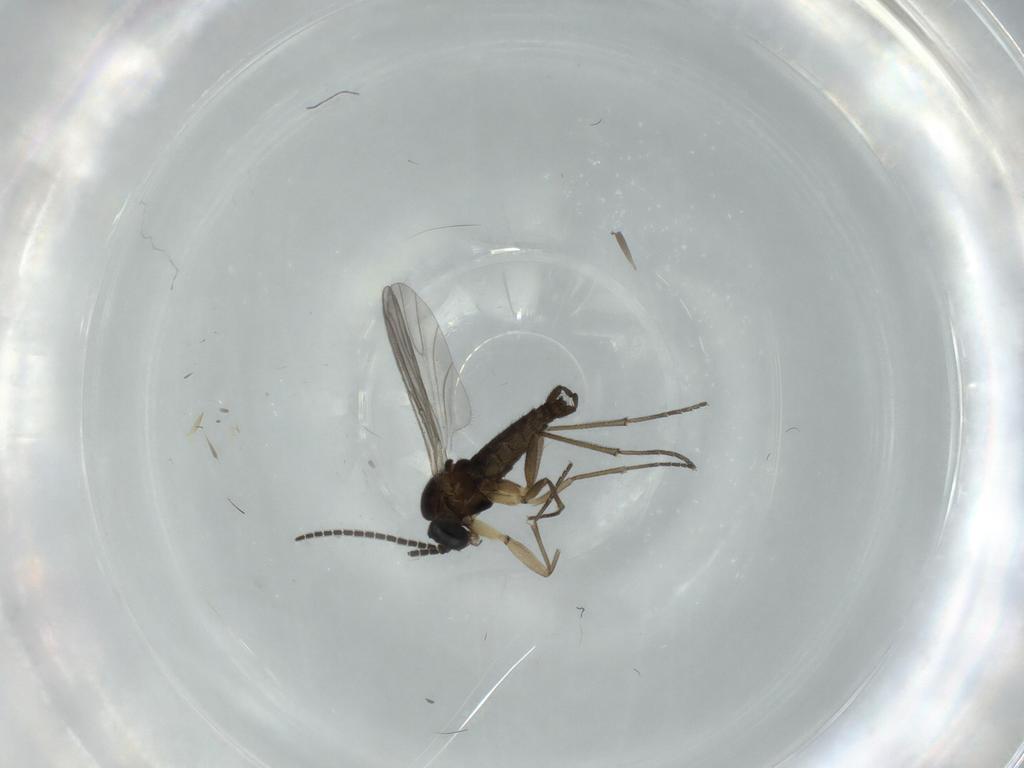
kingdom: Animalia
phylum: Arthropoda
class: Insecta
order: Diptera
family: Sciaridae
